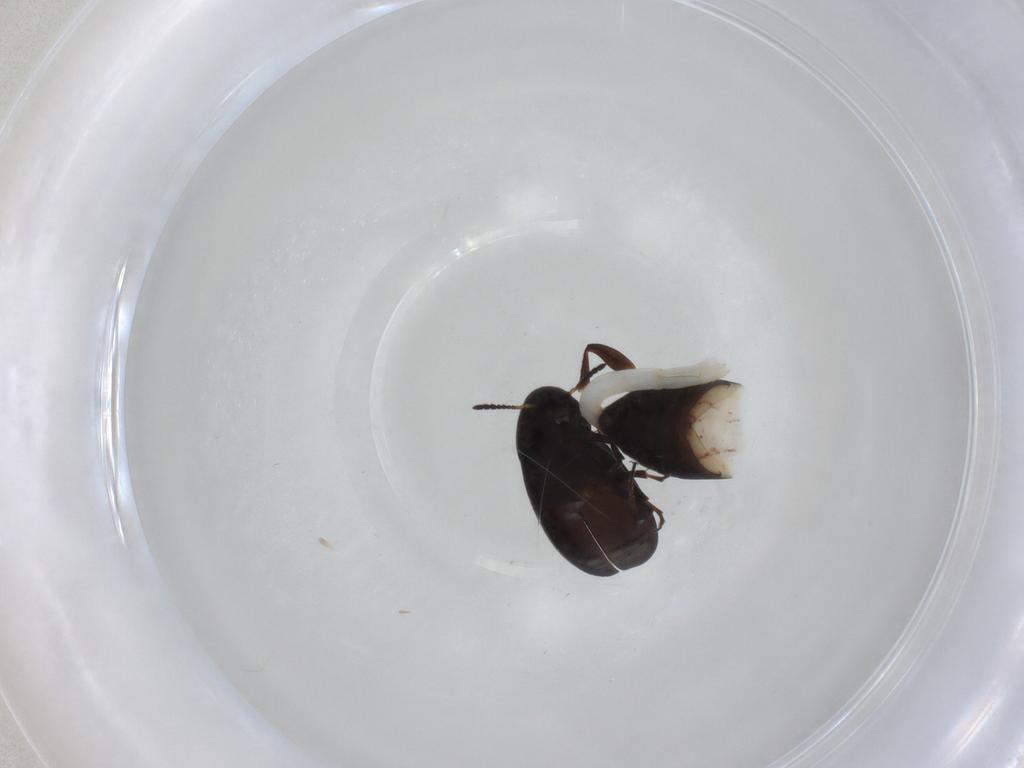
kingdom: Animalia
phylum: Arthropoda
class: Insecta
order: Coleoptera
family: Scraptiidae
